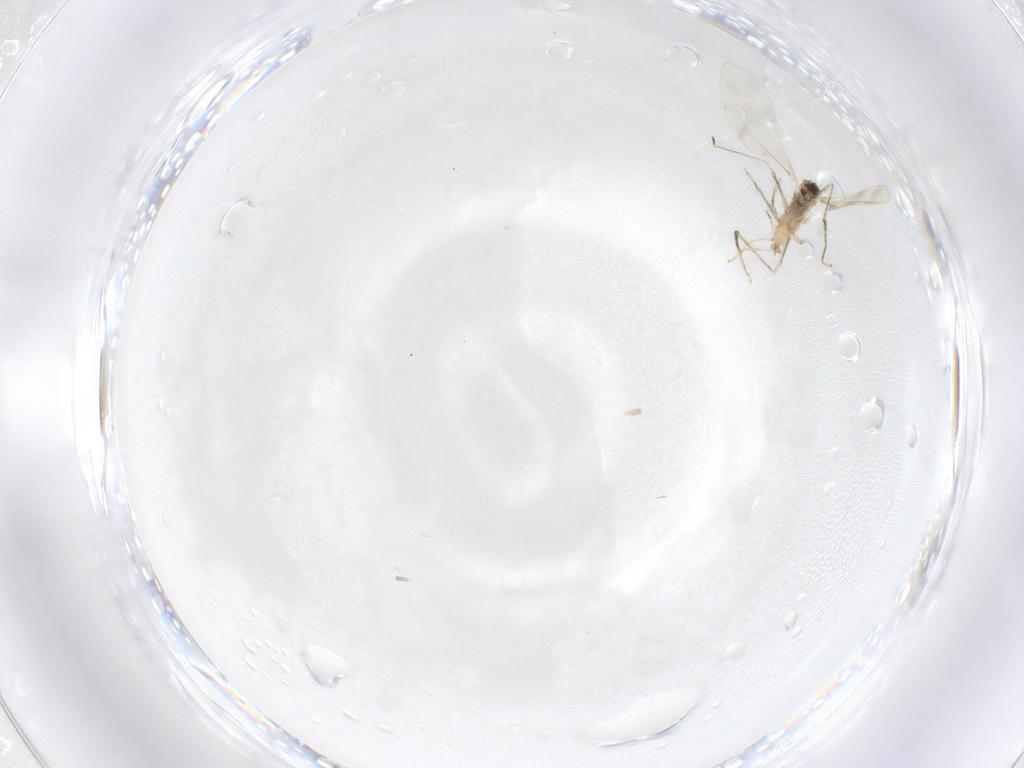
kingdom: Animalia
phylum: Arthropoda
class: Insecta
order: Diptera
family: Cecidomyiidae
